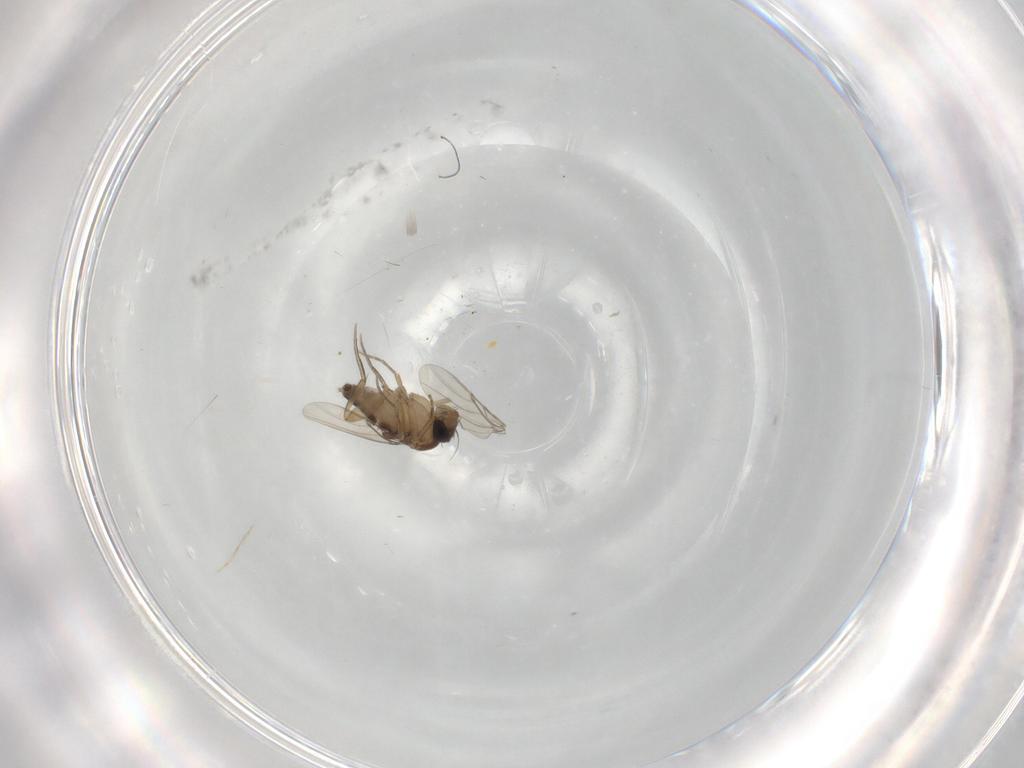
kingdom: Animalia
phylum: Arthropoda
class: Insecta
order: Diptera
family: Phoridae
